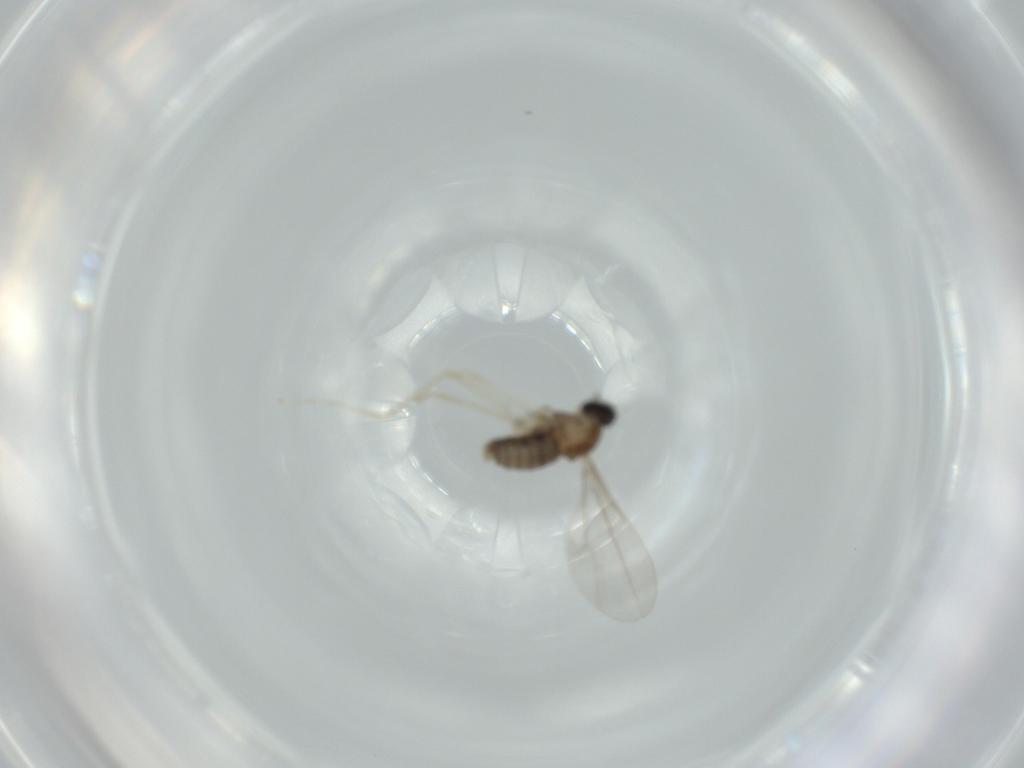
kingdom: Animalia
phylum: Arthropoda
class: Insecta
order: Diptera
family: Cecidomyiidae
